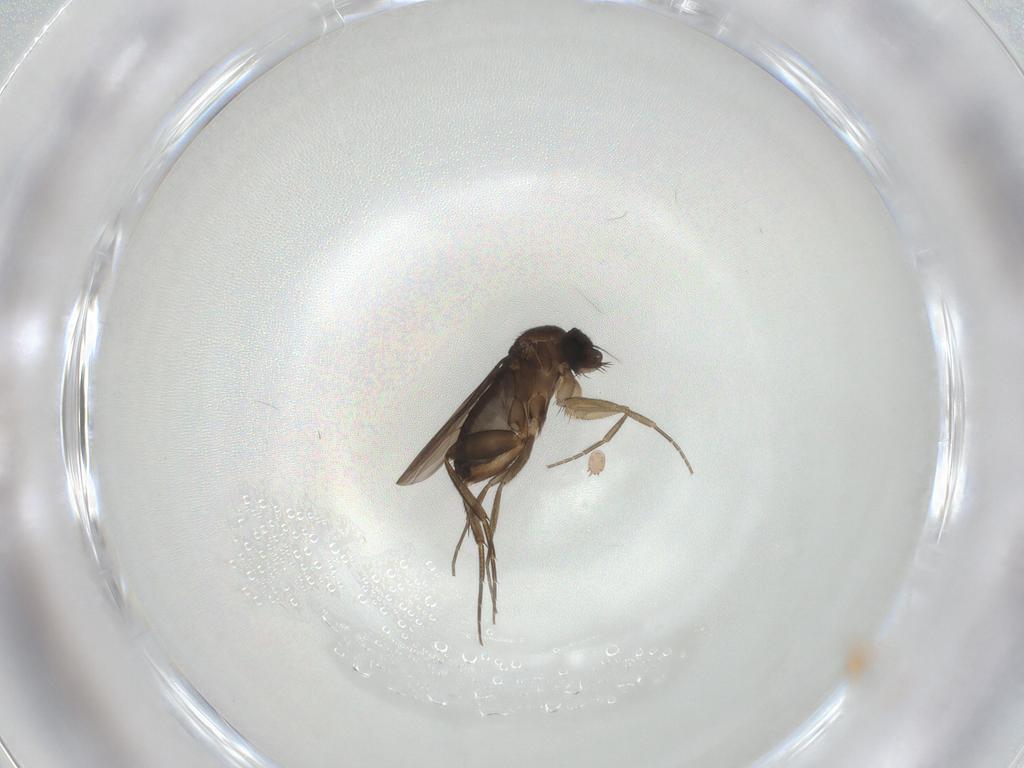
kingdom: Animalia
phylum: Arthropoda
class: Insecta
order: Diptera
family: Phoridae
